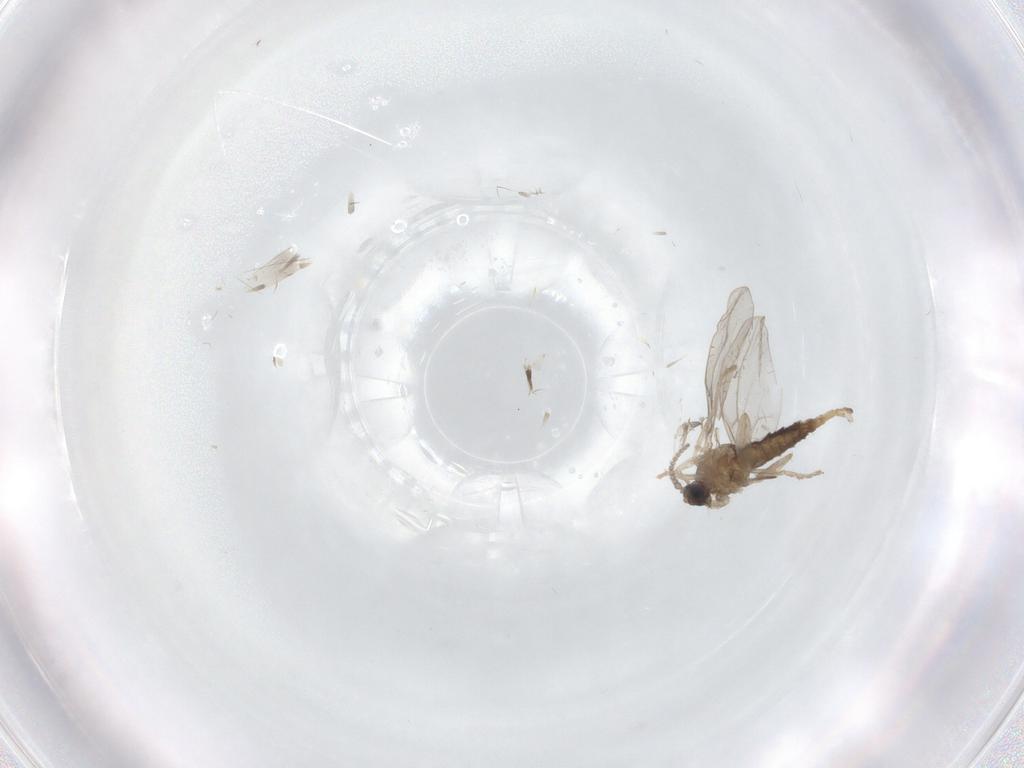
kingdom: Animalia
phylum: Arthropoda
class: Insecta
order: Diptera
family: Cecidomyiidae
